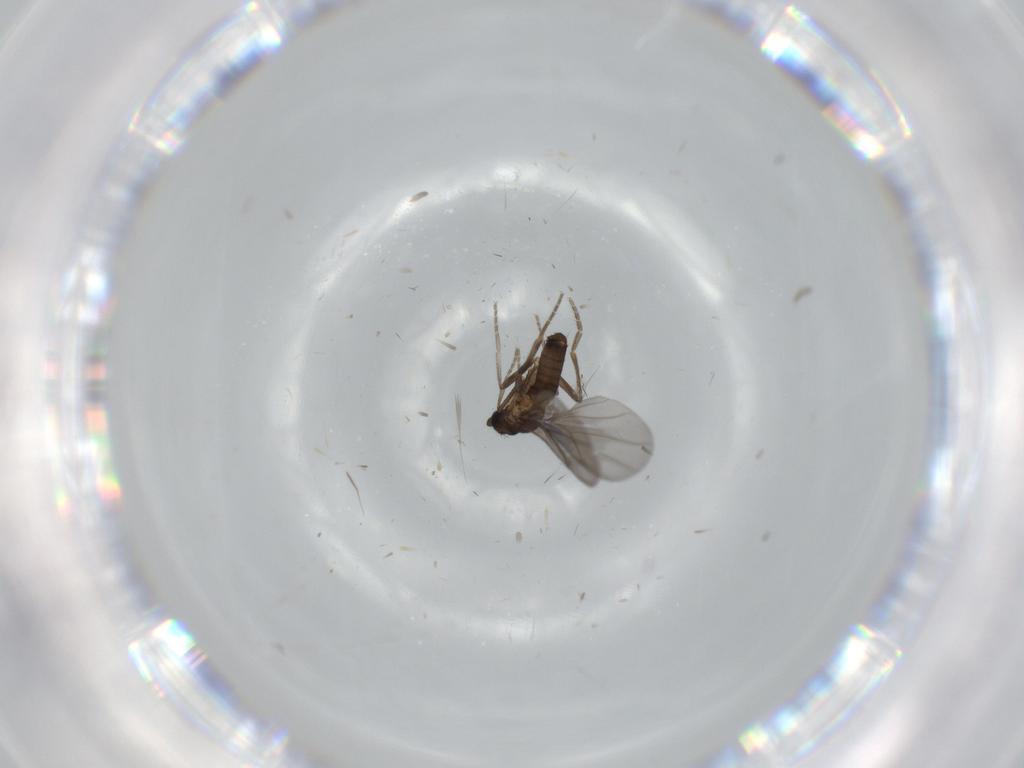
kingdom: Animalia
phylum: Arthropoda
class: Insecta
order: Diptera
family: Phoridae
